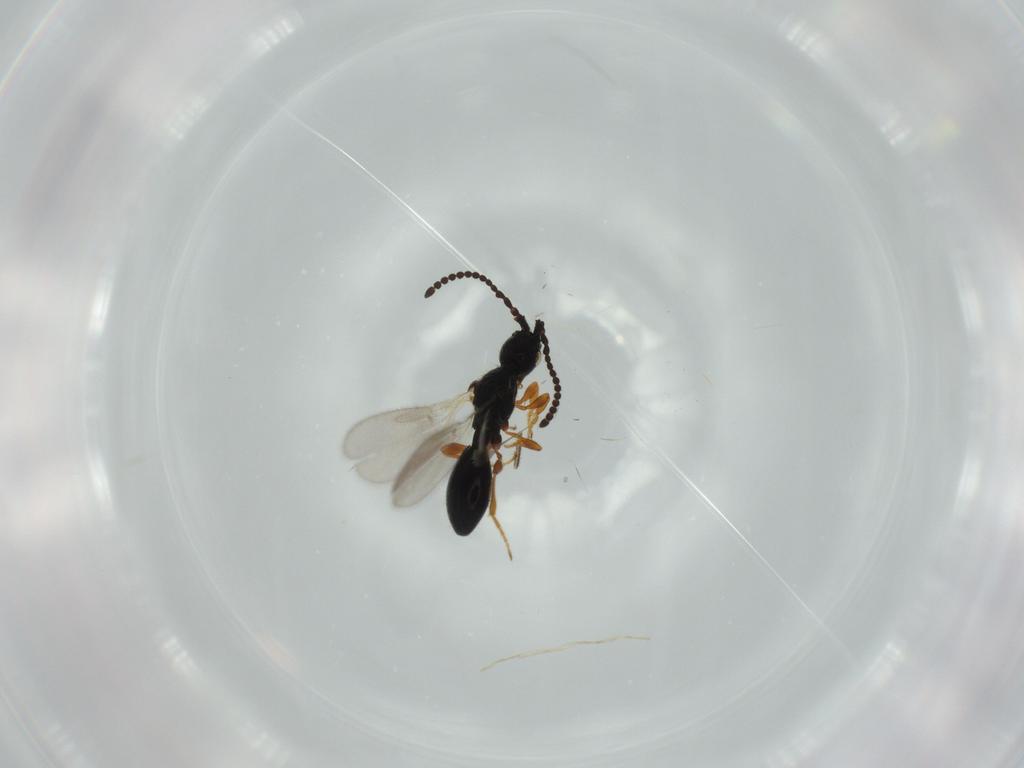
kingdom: Animalia
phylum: Arthropoda
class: Insecta
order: Hymenoptera
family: Diapriidae
